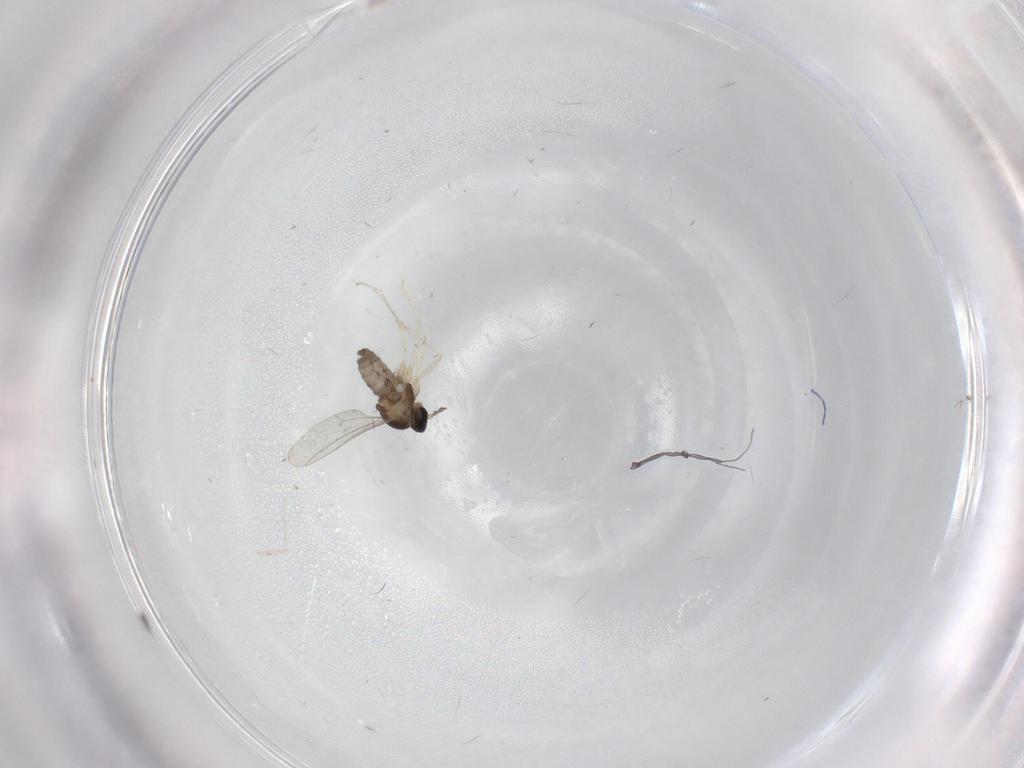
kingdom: Animalia
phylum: Arthropoda
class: Insecta
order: Diptera
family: Cecidomyiidae
